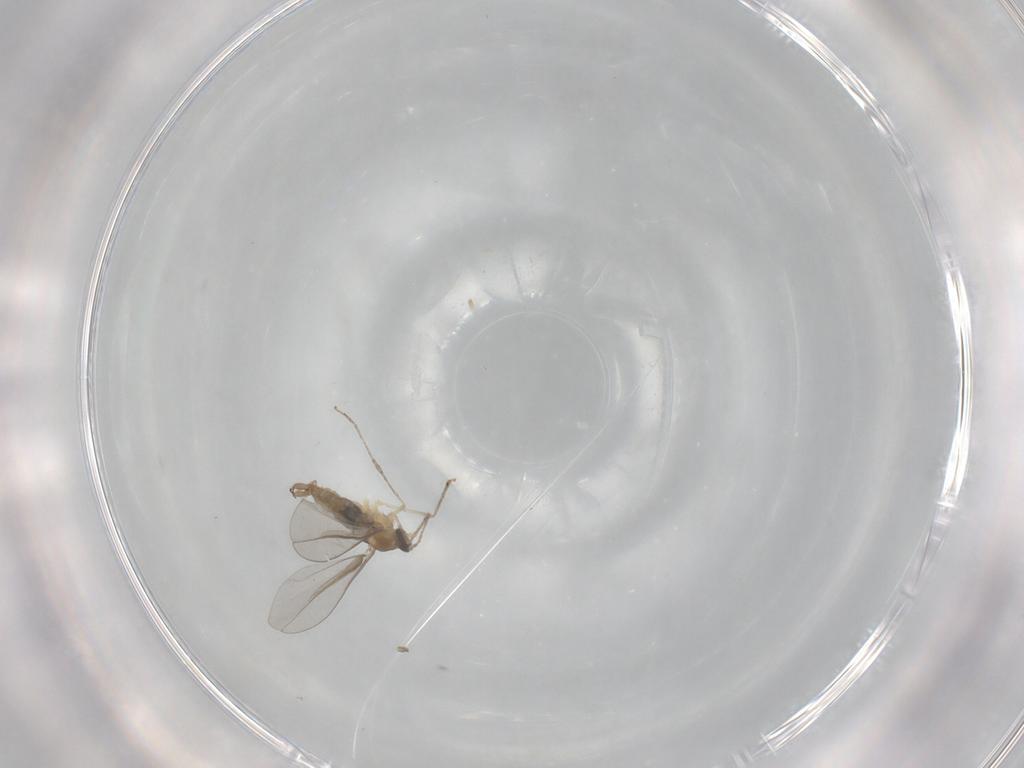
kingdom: Animalia
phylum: Arthropoda
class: Insecta
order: Diptera
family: Cecidomyiidae
